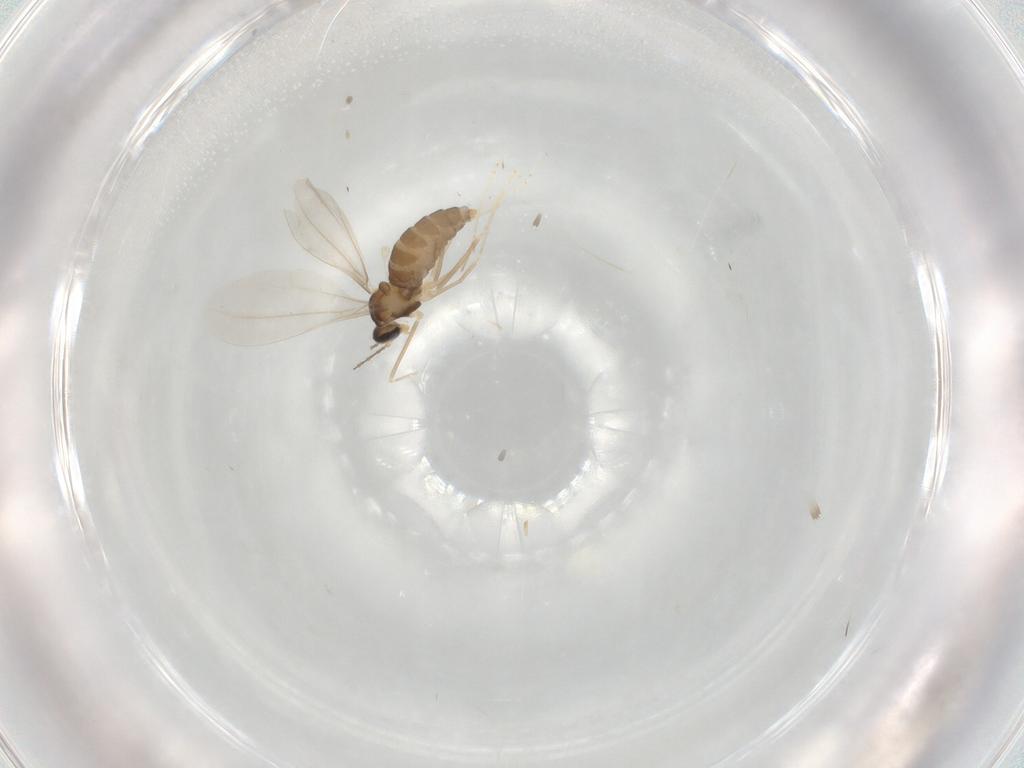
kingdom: Animalia
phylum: Arthropoda
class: Insecta
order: Diptera
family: Cecidomyiidae
